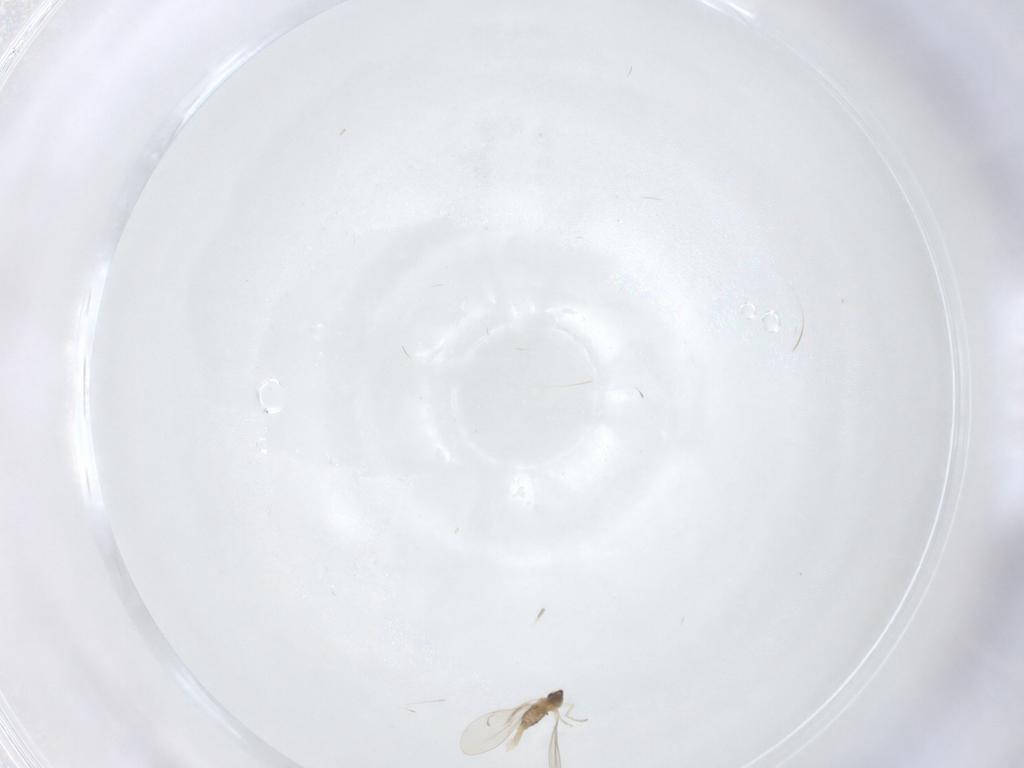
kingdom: Animalia
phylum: Arthropoda
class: Insecta
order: Diptera
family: Cecidomyiidae
